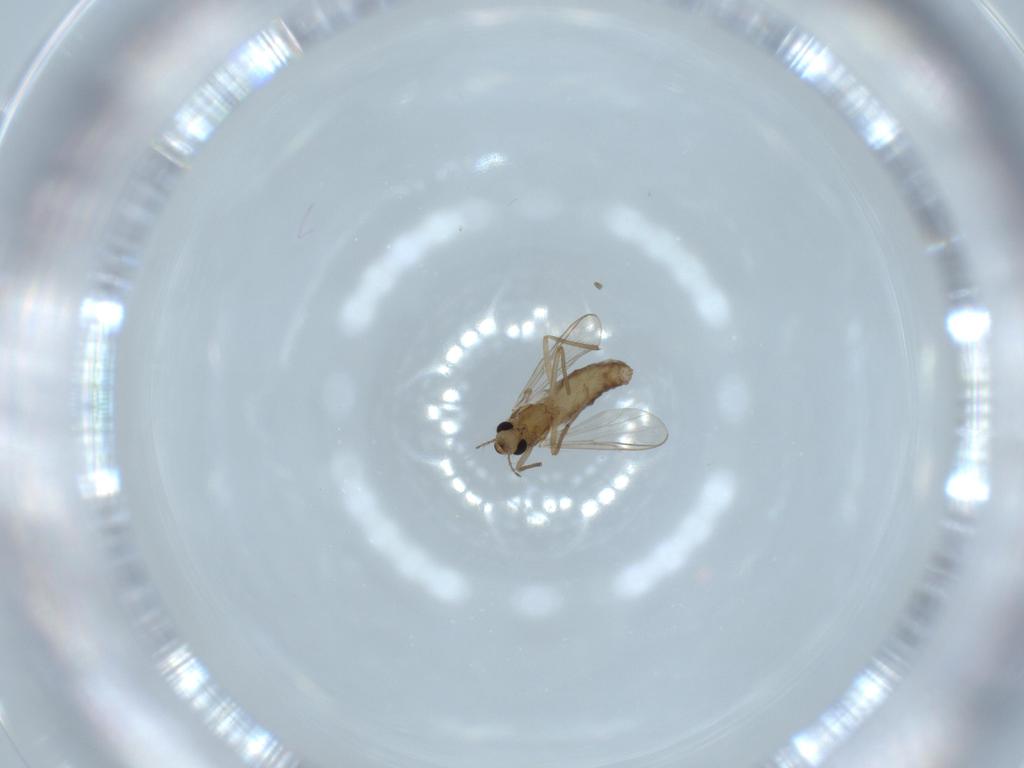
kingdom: Animalia
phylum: Arthropoda
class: Insecta
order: Diptera
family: Chironomidae
